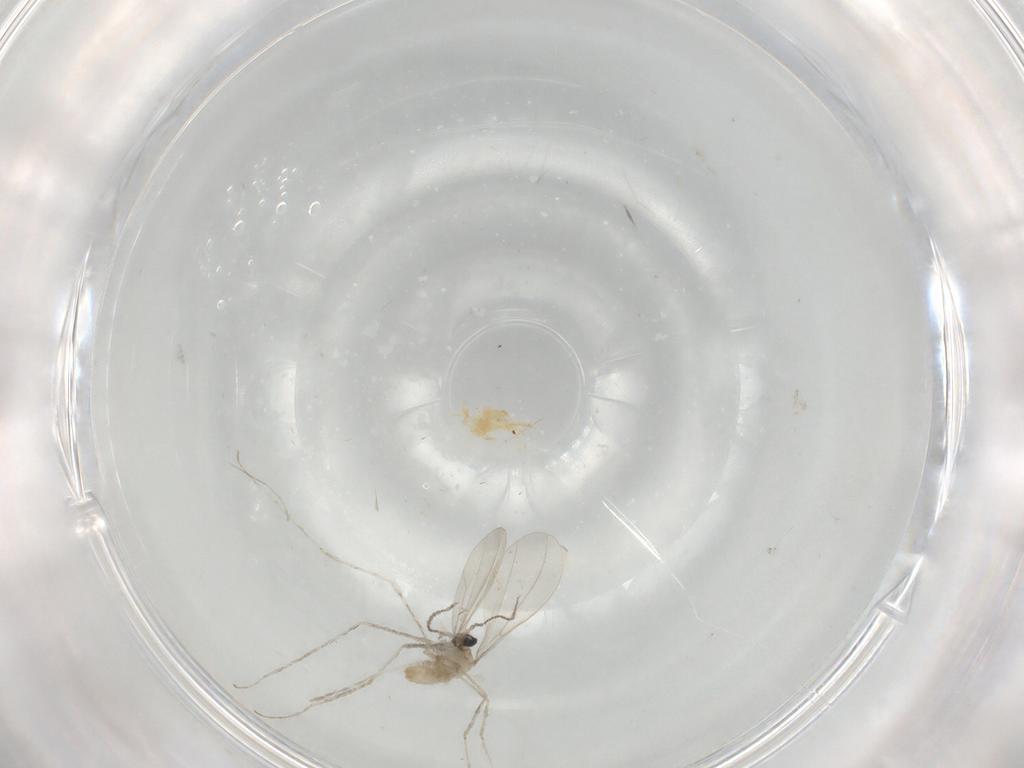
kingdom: Animalia
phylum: Arthropoda
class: Insecta
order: Diptera
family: Cecidomyiidae
